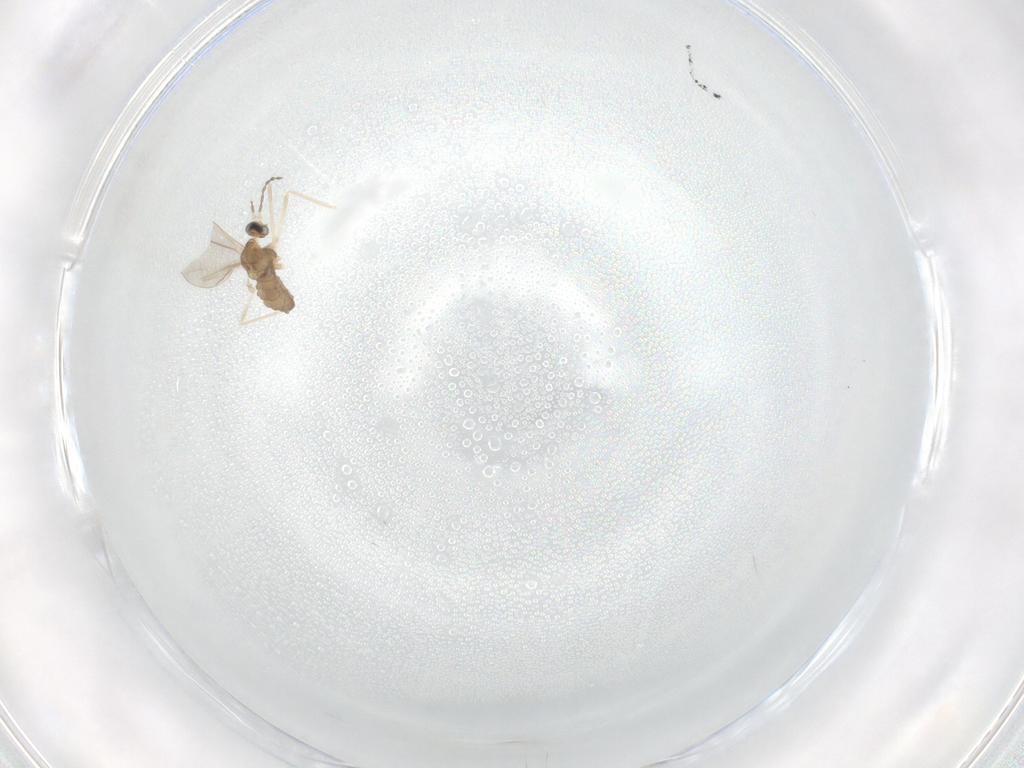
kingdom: Animalia
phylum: Arthropoda
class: Insecta
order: Diptera
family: Cecidomyiidae
